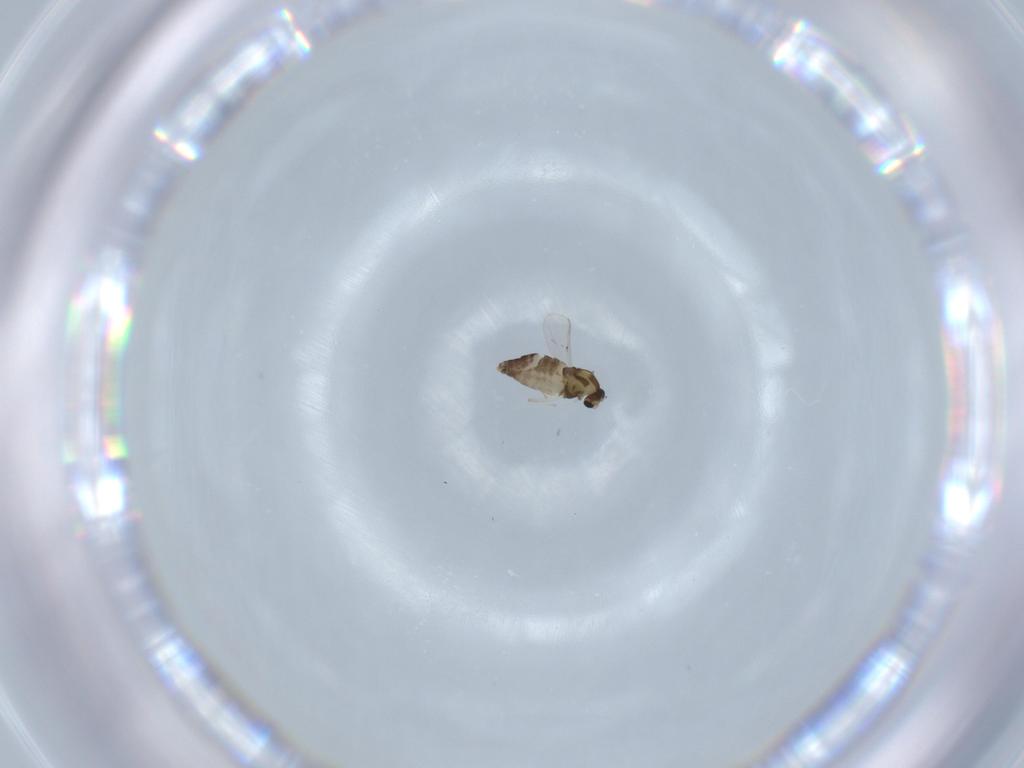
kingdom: Animalia
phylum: Arthropoda
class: Insecta
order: Diptera
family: Chironomidae
